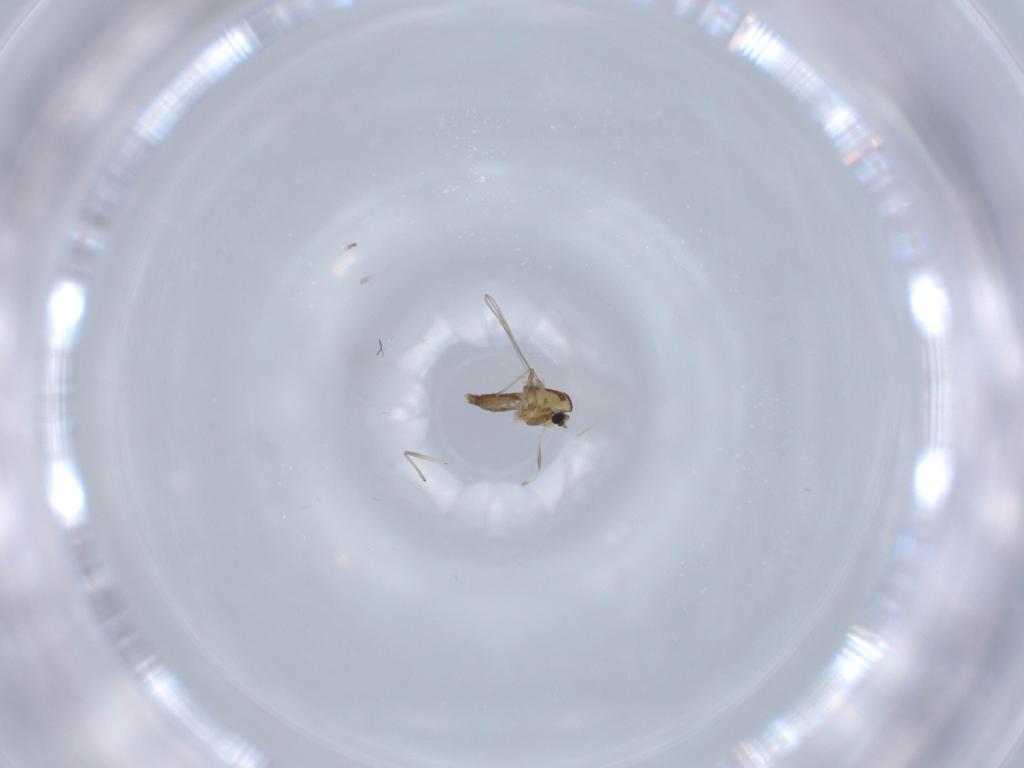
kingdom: Animalia
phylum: Arthropoda
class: Insecta
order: Diptera
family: Chironomidae
